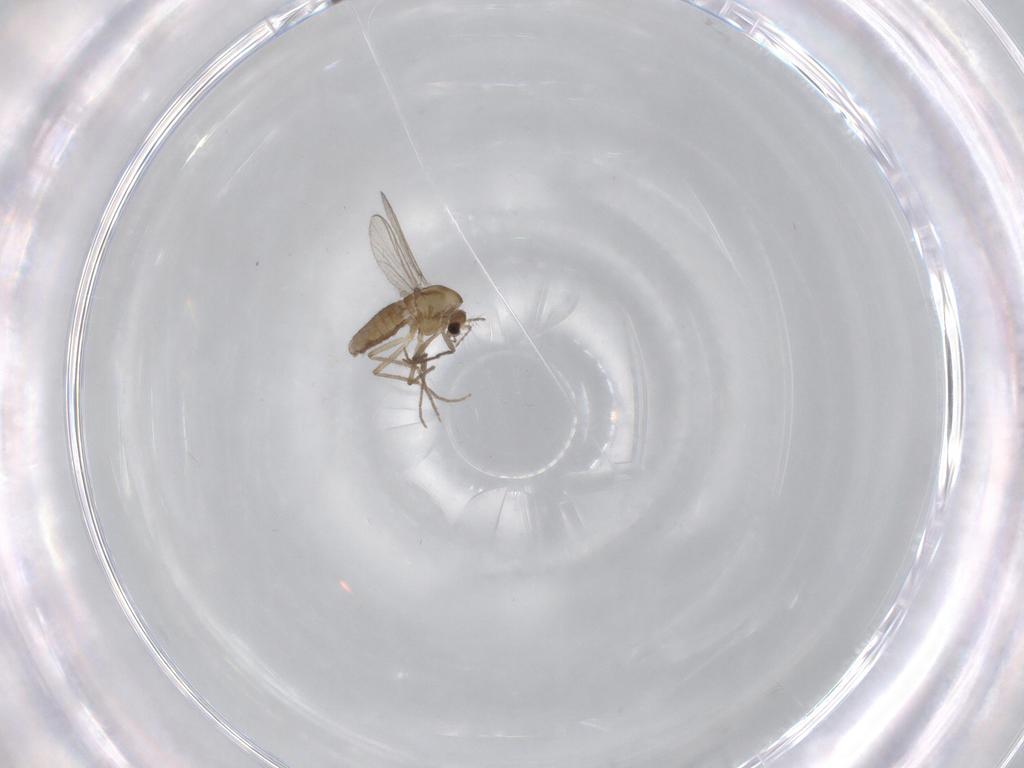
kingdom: Animalia
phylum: Arthropoda
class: Insecta
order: Diptera
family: Chironomidae
